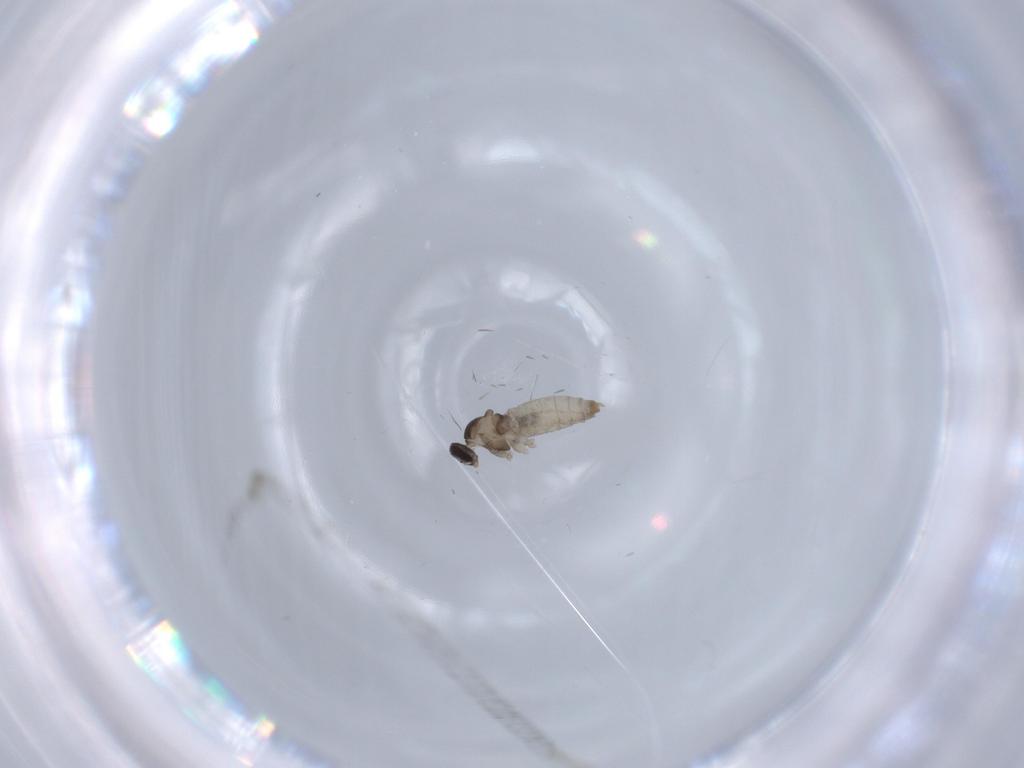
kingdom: Animalia
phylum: Arthropoda
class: Insecta
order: Diptera
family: Cecidomyiidae
